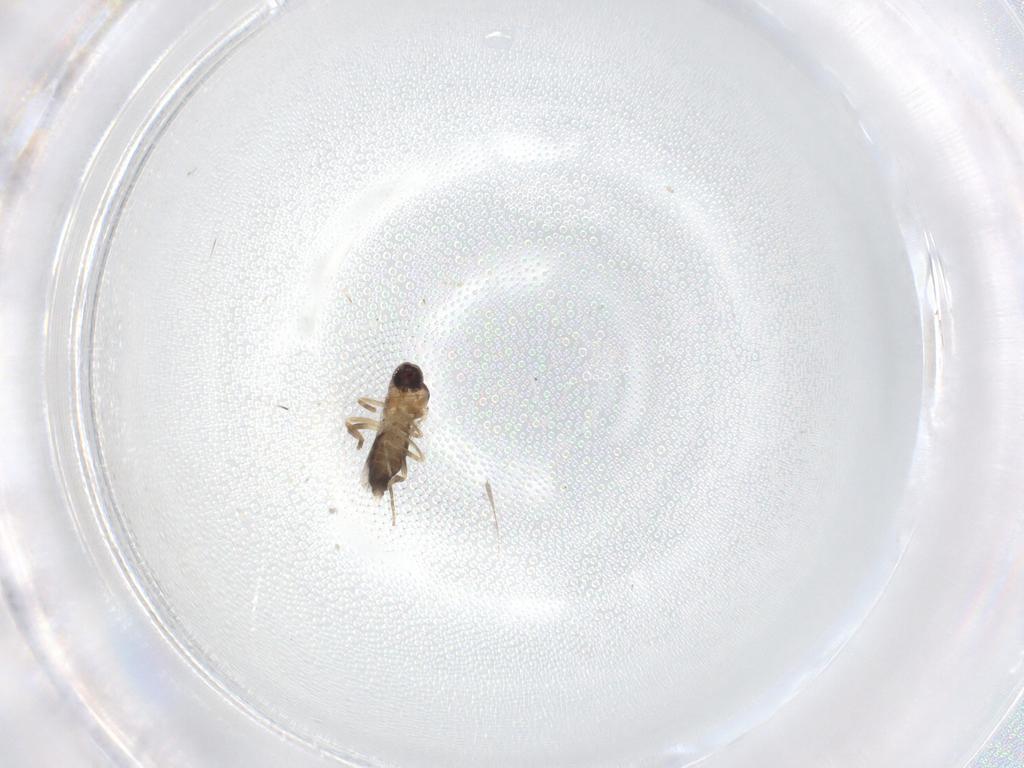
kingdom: Animalia
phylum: Arthropoda
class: Insecta
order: Diptera
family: Ceratopogonidae
